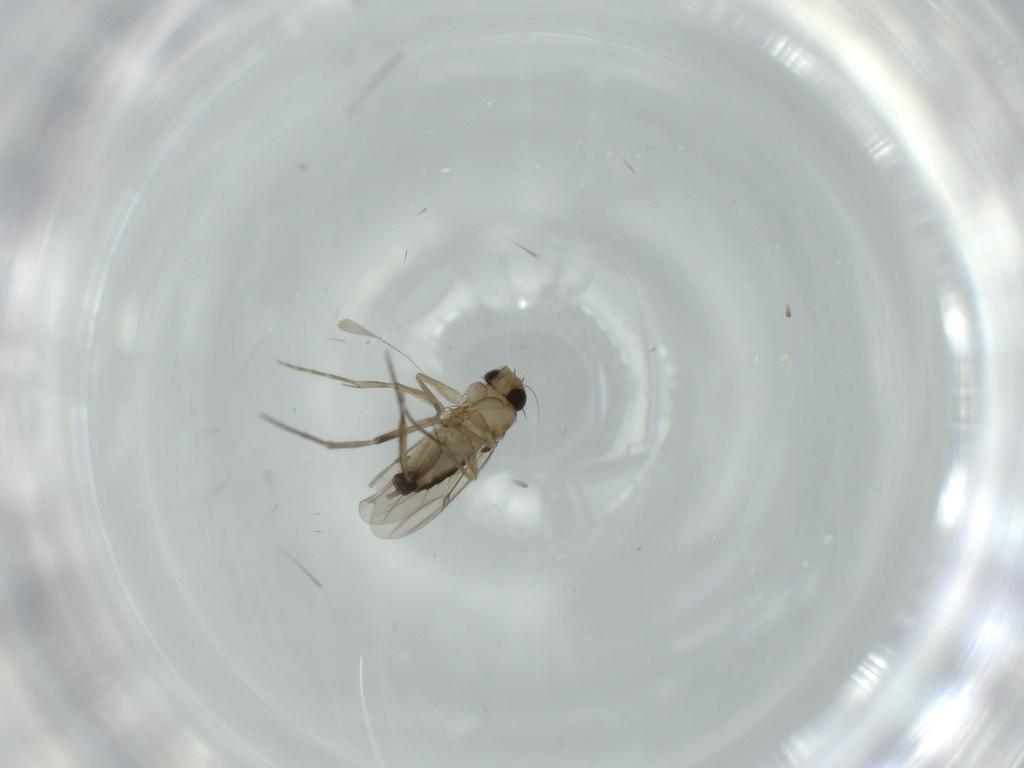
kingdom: Animalia
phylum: Arthropoda
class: Insecta
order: Diptera
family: Phoridae
